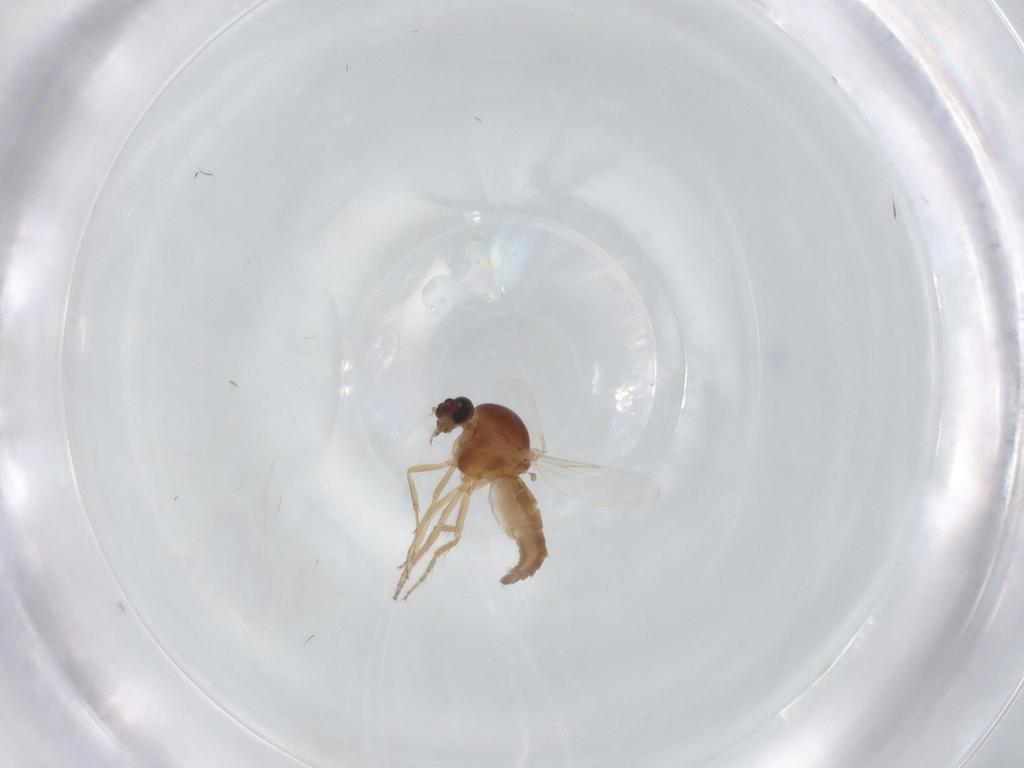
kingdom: Animalia
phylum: Arthropoda
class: Insecta
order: Diptera
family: Ceratopogonidae
